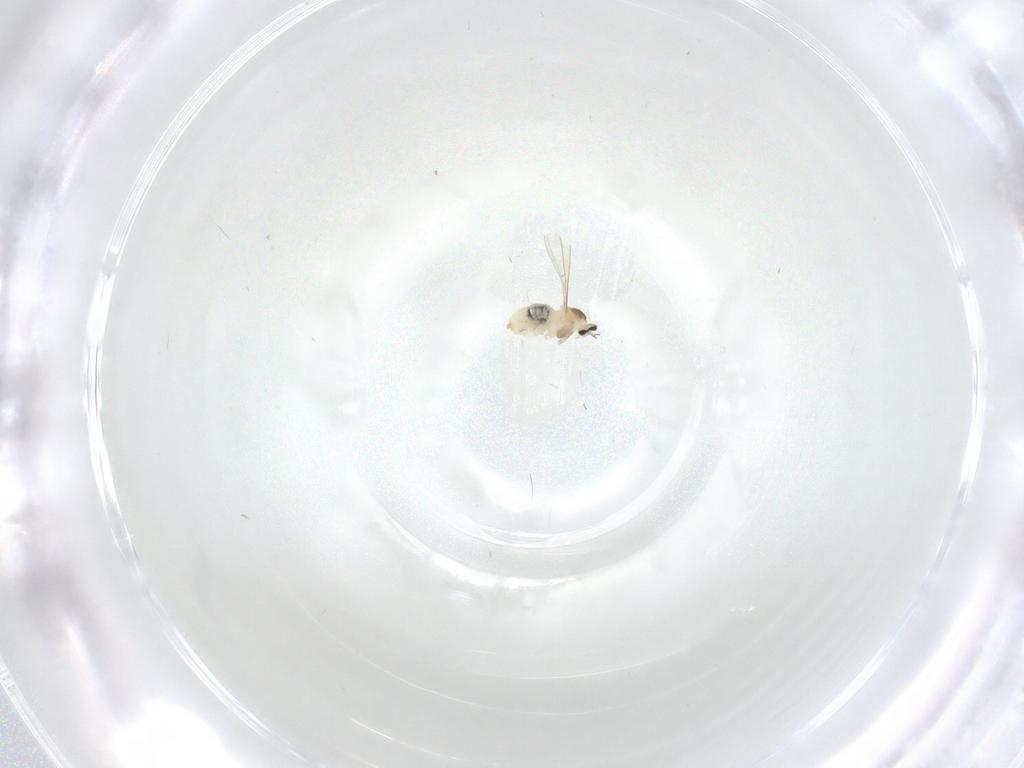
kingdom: Animalia
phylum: Arthropoda
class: Insecta
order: Diptera
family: Cecidomyiidae
